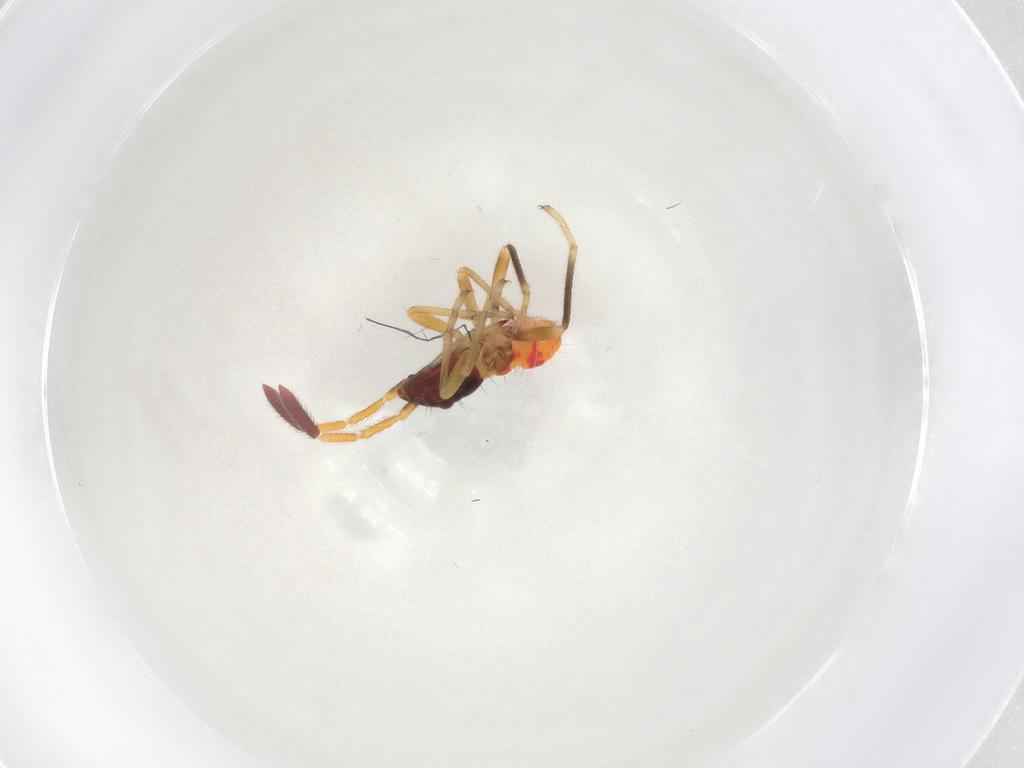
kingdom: Animalia
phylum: Arthropoda
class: Insecta
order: Hemiptera
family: Rhyparochromidae
